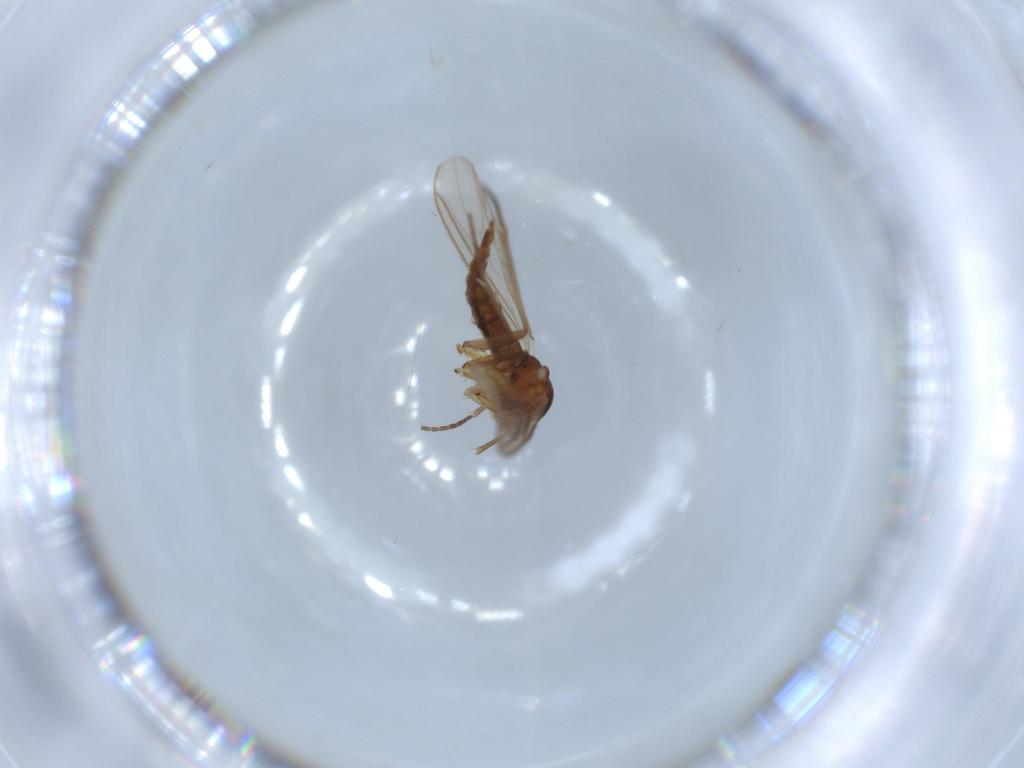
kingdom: Animalia
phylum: Arthropoda
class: Insecta
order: Diptera
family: Sciaridae
